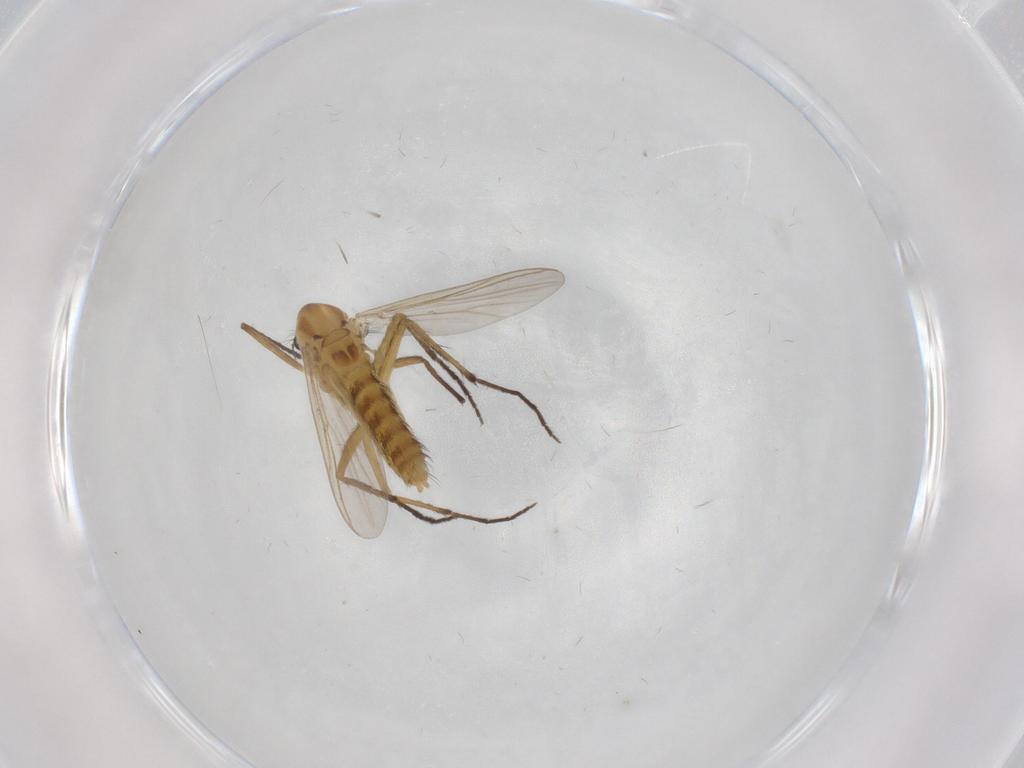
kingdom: Animalia
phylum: Arthropoda
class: Insecta
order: Diptera
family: Chironomidae
